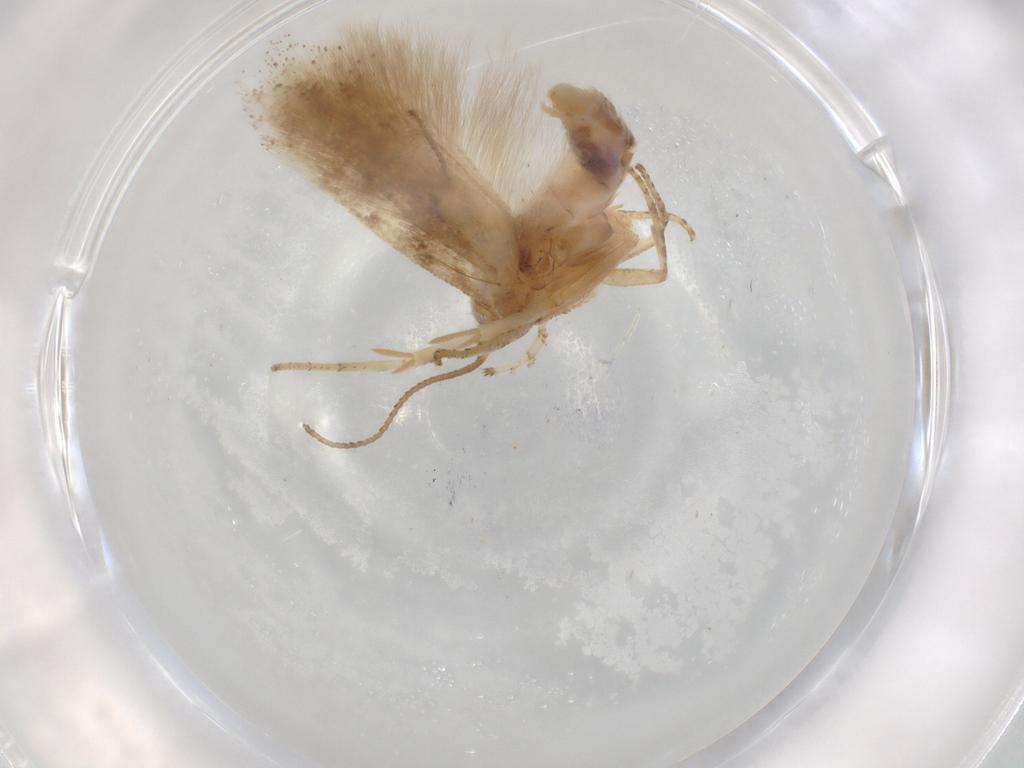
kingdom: Animalia
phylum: Arthropoda
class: Insecta
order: Lepidoptera
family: Gelechiidae
